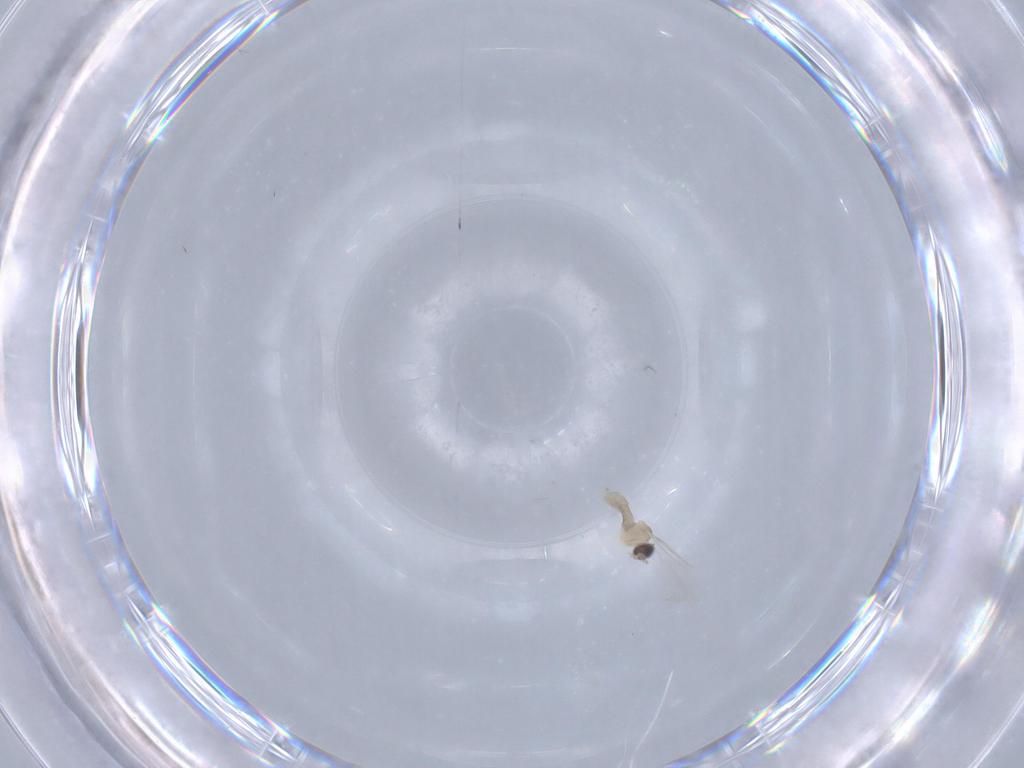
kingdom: Animalia
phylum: Arthropoda
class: Insecta
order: Diptera
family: Cecidomyiidae
